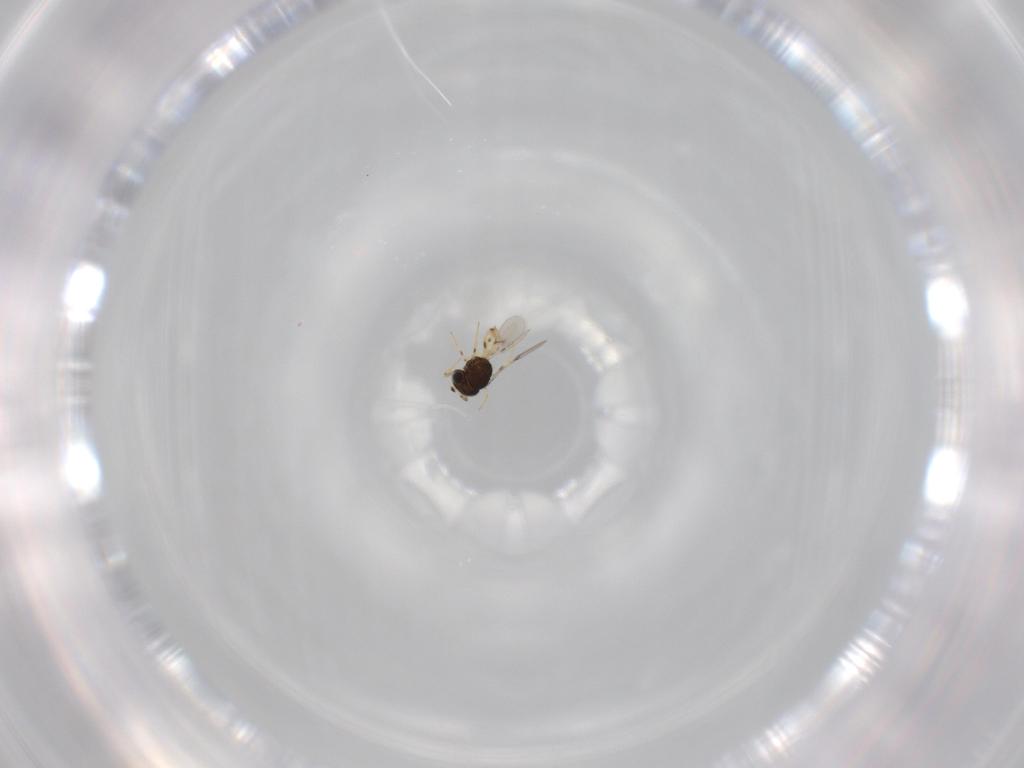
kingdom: Animalia
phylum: Arthropoda
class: Insecta
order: Hymenoptera
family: Scelionidae
